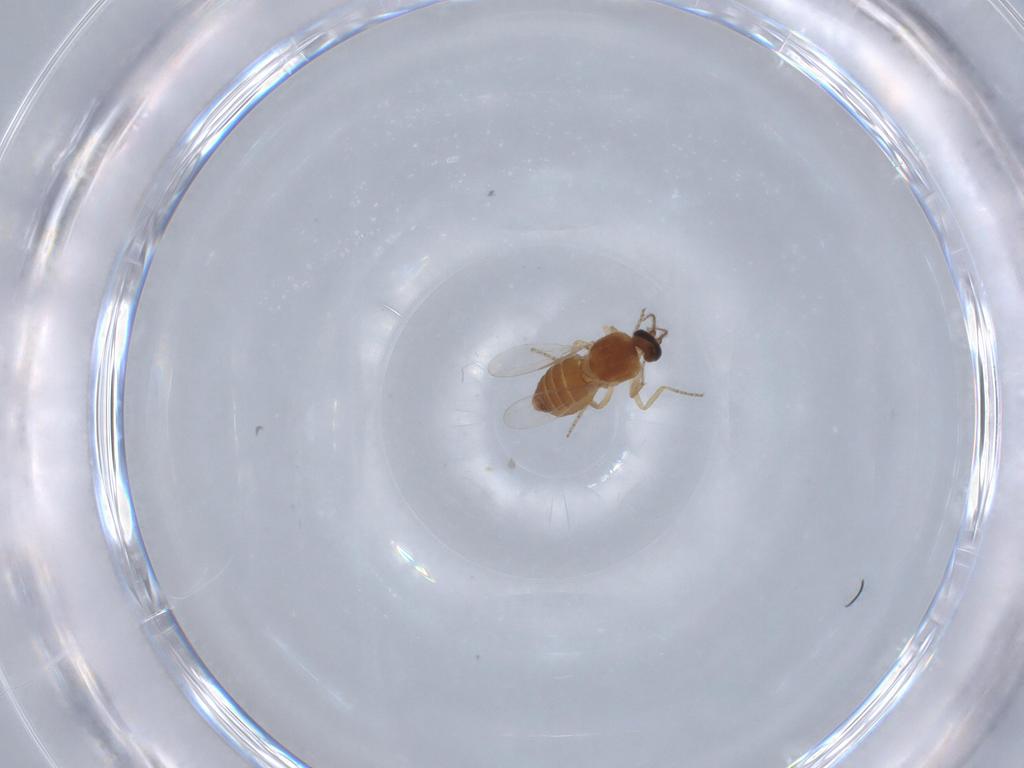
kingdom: Animalia
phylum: Arthropoda
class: Insecta
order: Diptera
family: Ceratopogonidae
